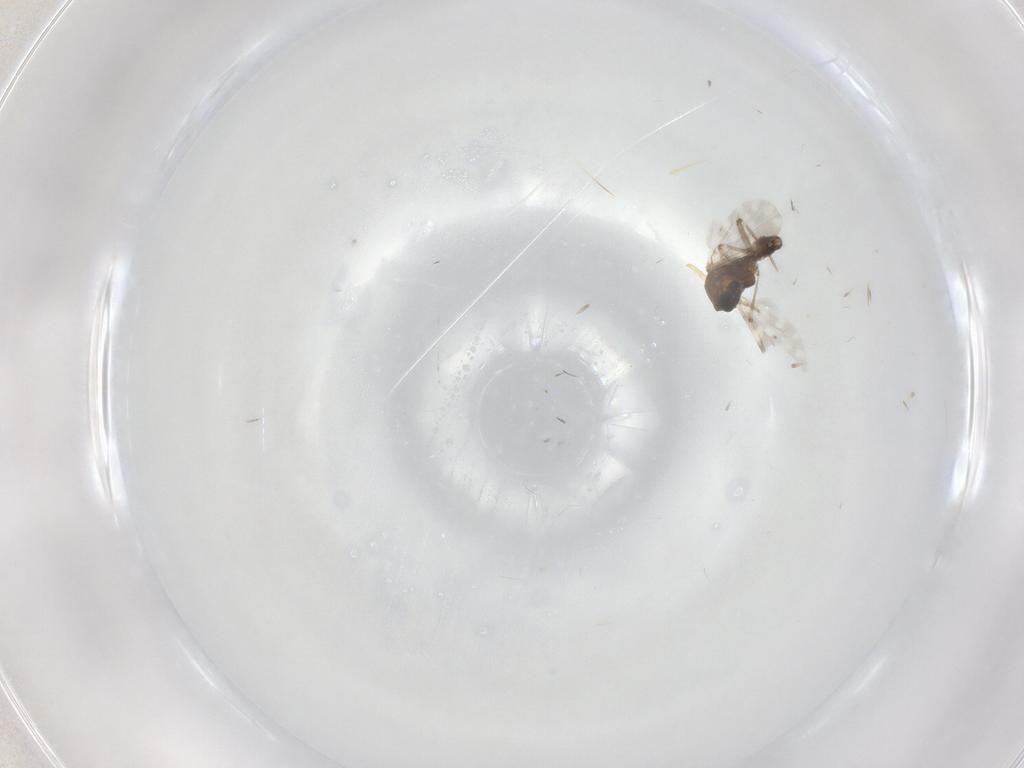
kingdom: Animalia
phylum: Arthropoda
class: Insecta
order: Diptera
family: Ceratopogonidae
